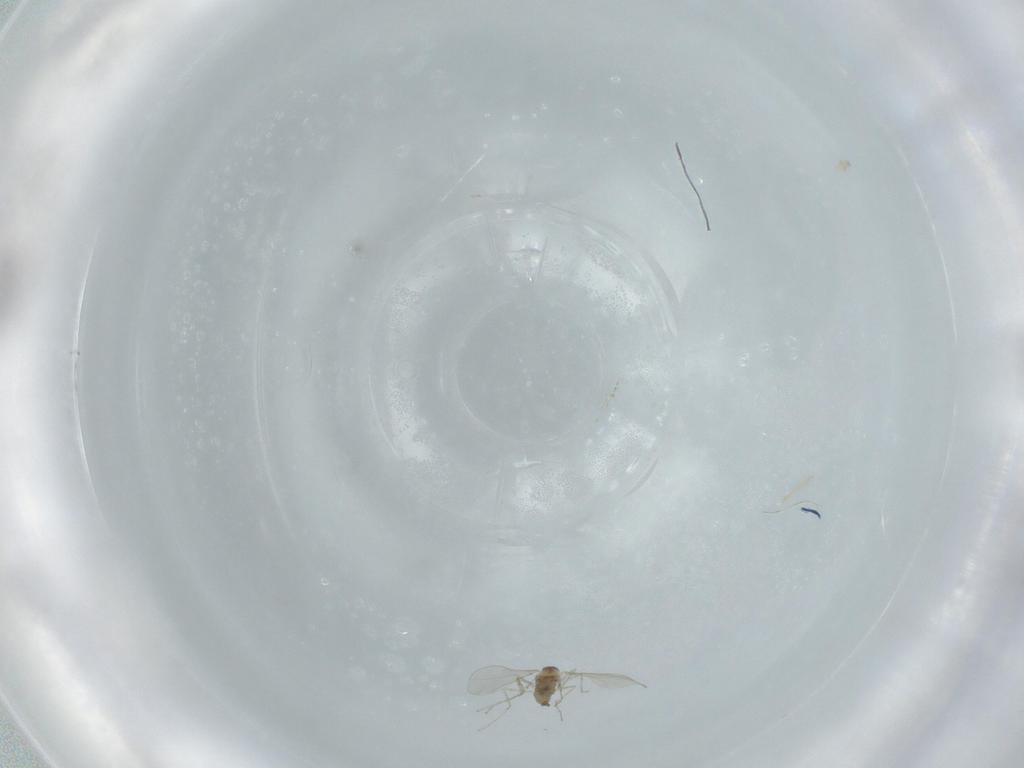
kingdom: Animalia
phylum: Arthropoda
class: Insecta
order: Diptera
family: Cecidomyiidae
